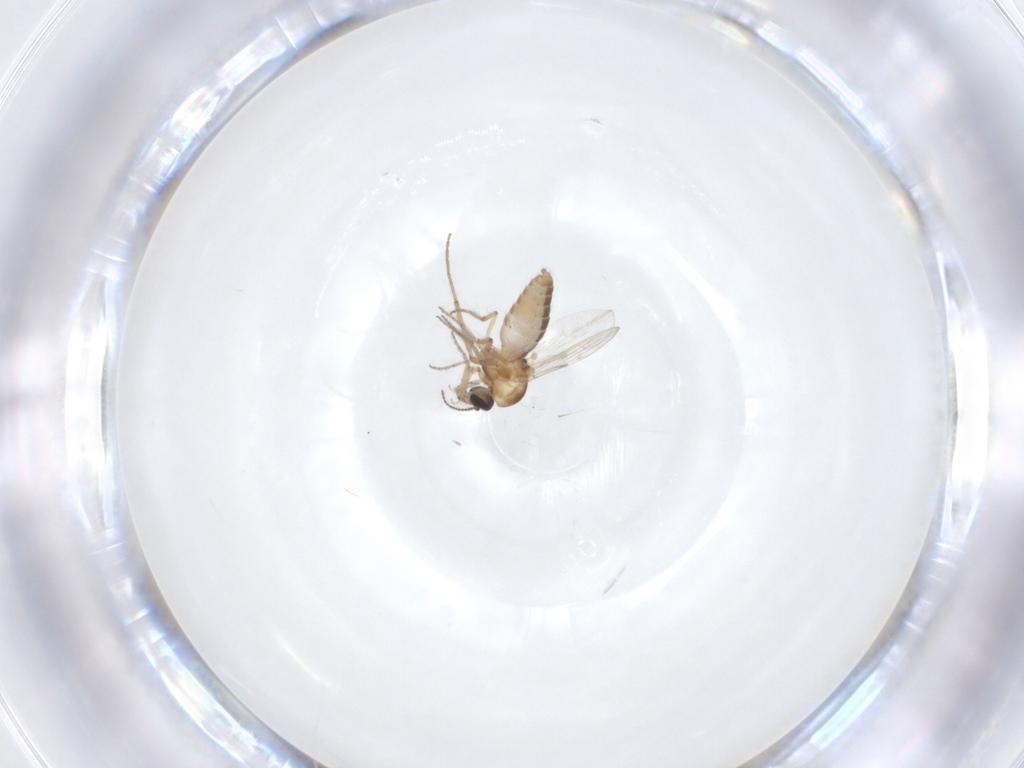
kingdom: Animalia
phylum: Arthropoda
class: Insecta
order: Diptera
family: Ceratopogonidae
